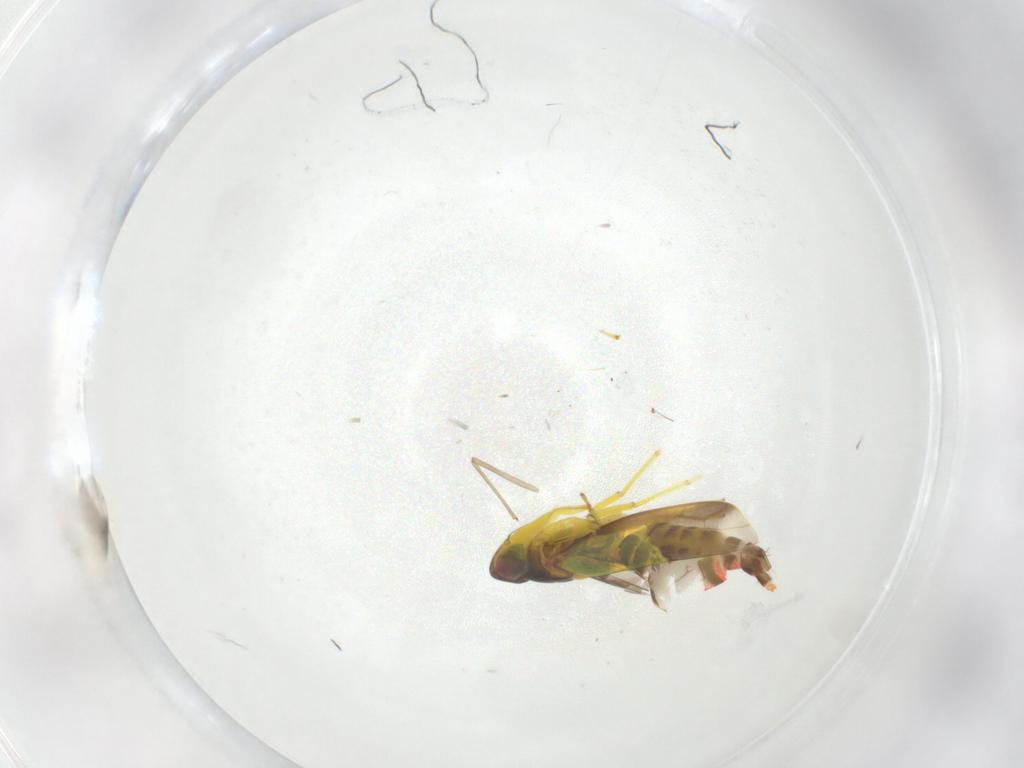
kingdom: Animalia
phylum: Arthropoda
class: Insecta
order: Hemiptera
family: Cicadellidae
